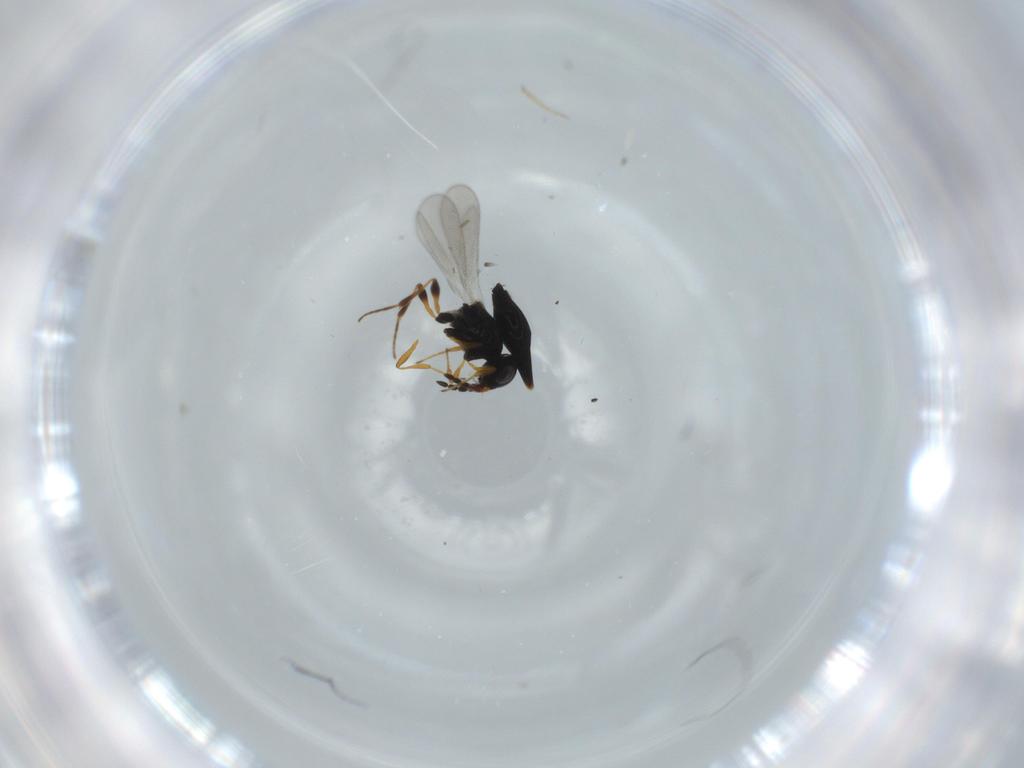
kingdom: Animalia
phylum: Arthropoda
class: Insecta
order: Hymenoptera
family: Platygastridae
